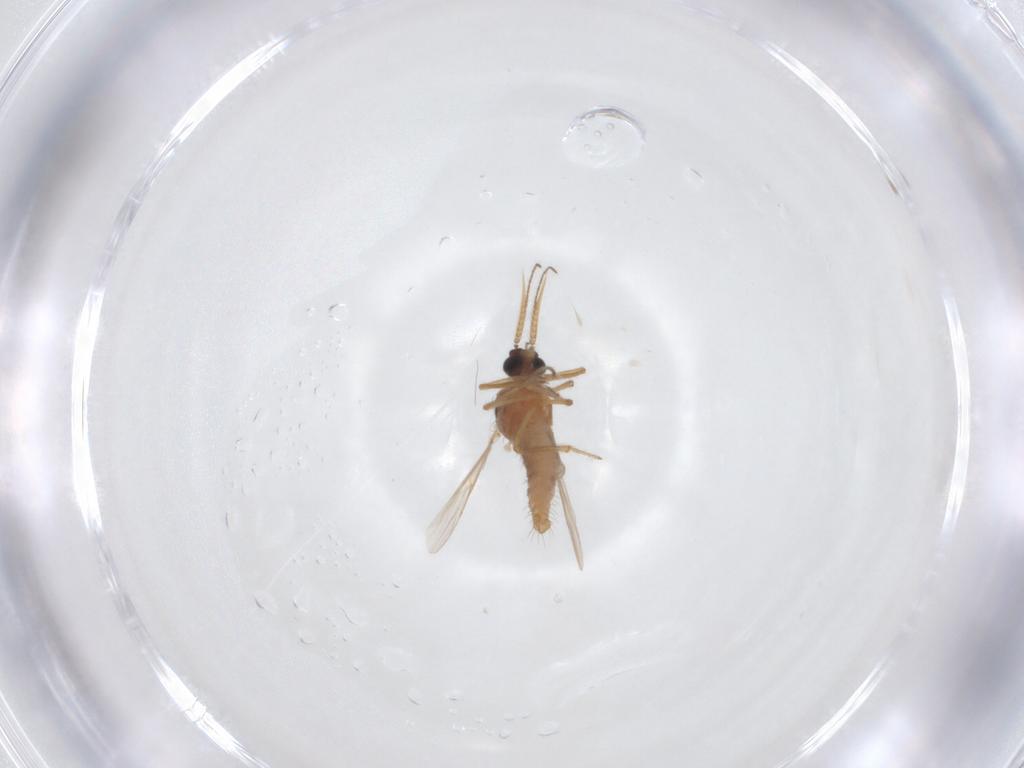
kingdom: Animalia
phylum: Arthropoda
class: Insecta
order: Diptera
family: Ceratopogonidae
